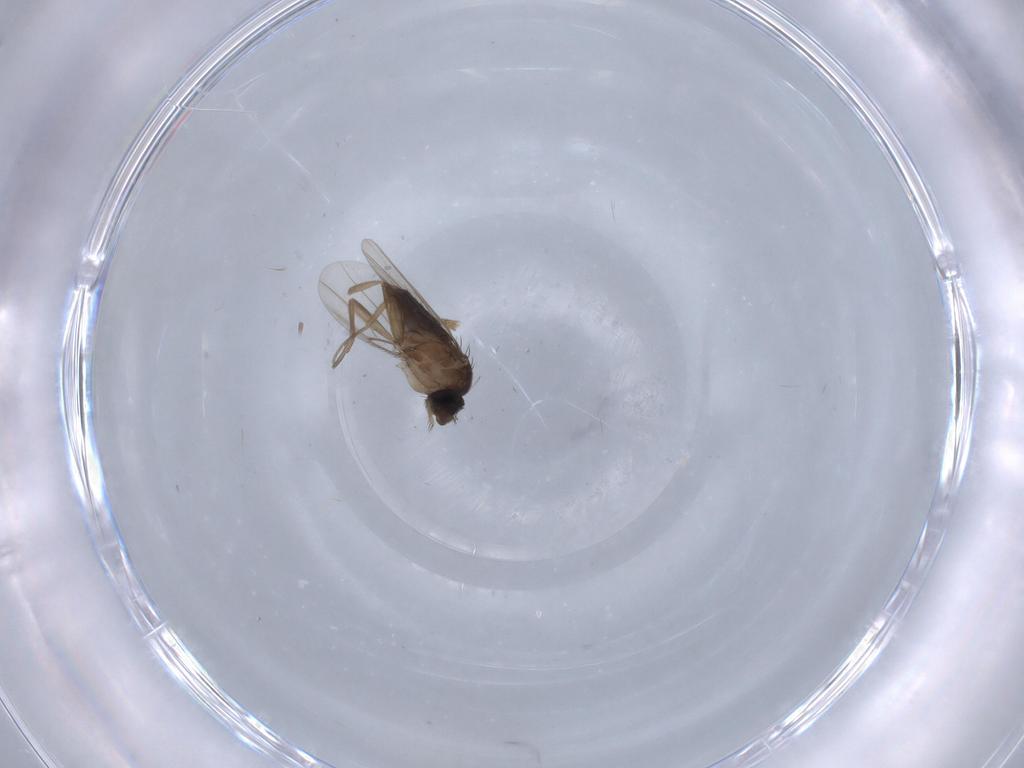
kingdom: Animalia
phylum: Arthropoda
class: Insecta
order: Diptera
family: Phoridae
